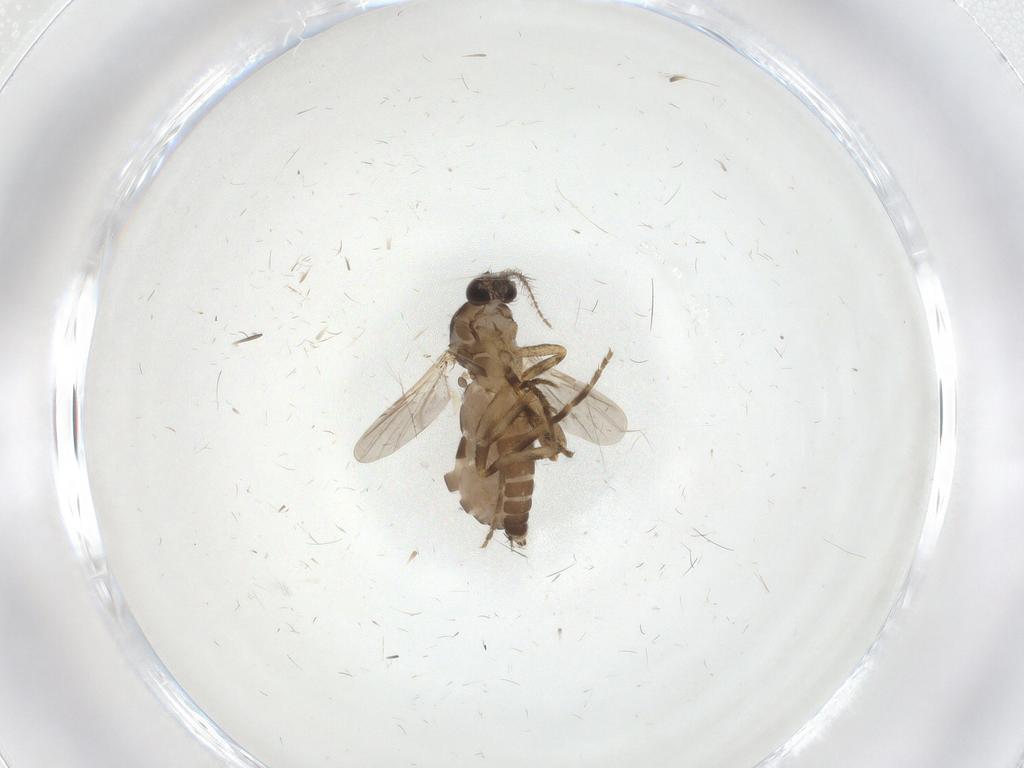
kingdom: Animalia
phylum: Arthropoda
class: Insecta
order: Diptera
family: Ceratopogonidae
